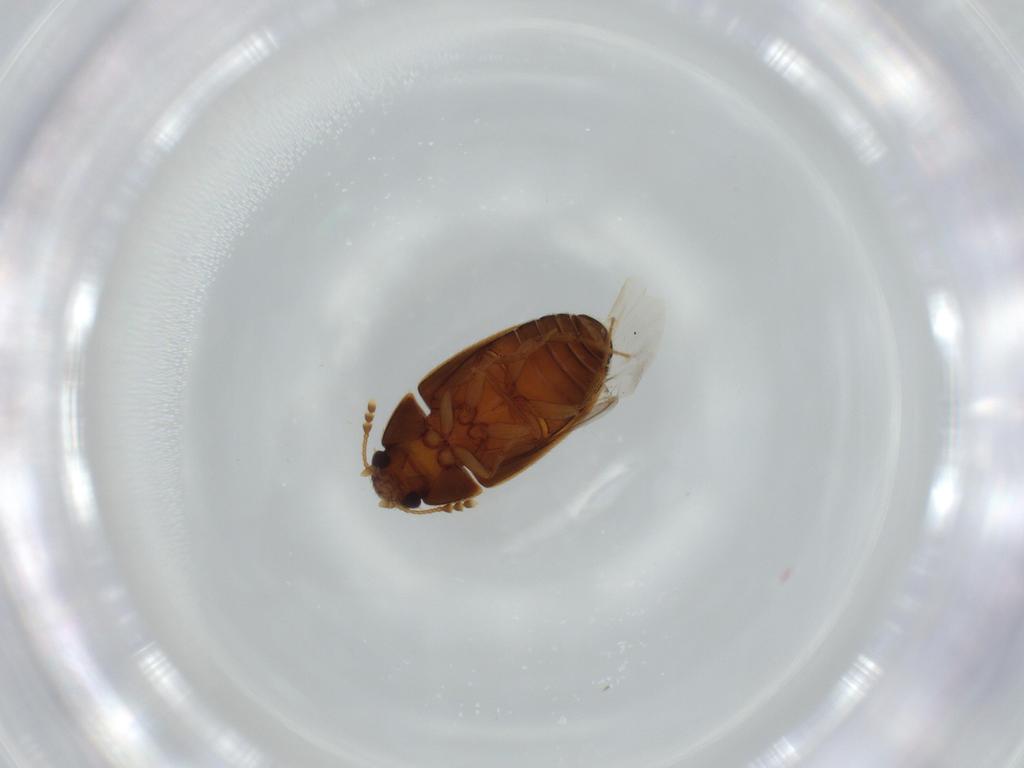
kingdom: Animalia
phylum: Arthropoda
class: Insecta
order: Coleoptera
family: Mycetophagidae
